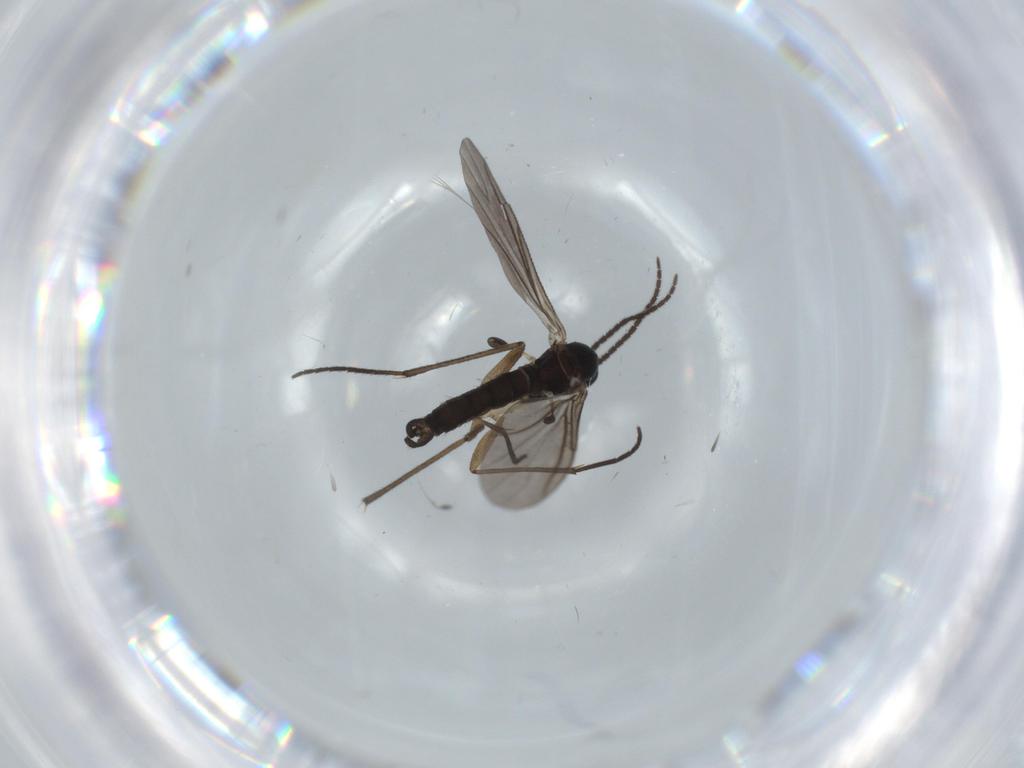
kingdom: Animalia
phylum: Arthropoda
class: Insecta
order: Diptera
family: Sciaridae
